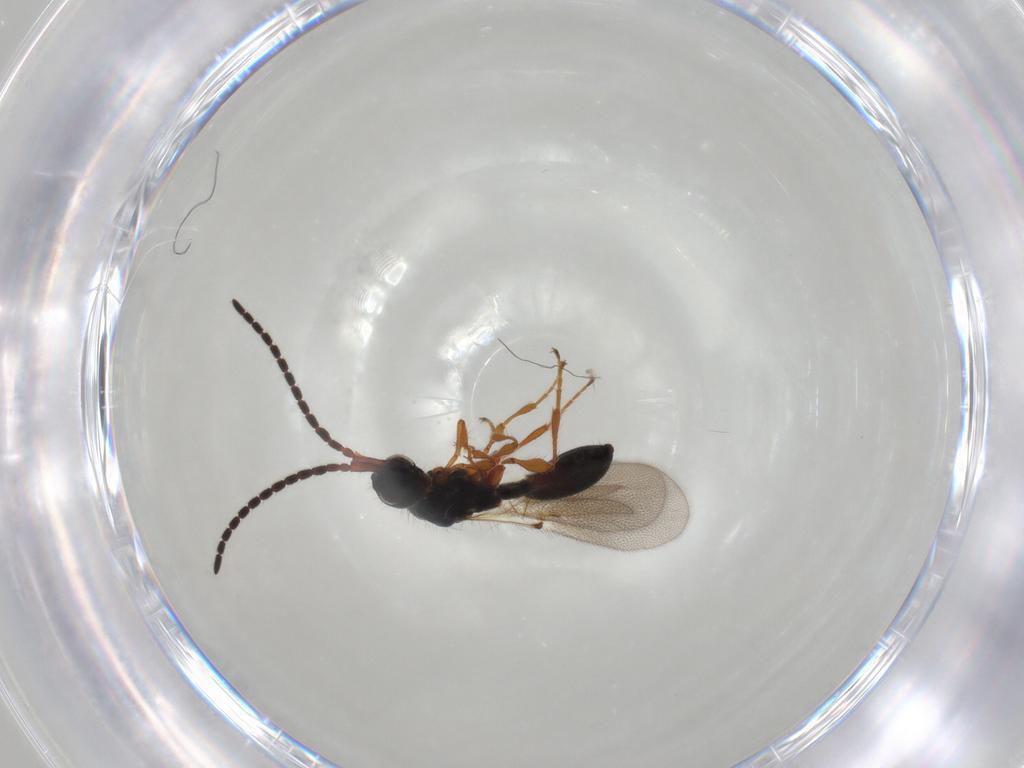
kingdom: Animalia
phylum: Arthropoda
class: Insecta
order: Hymenoptera
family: Diapriidae
